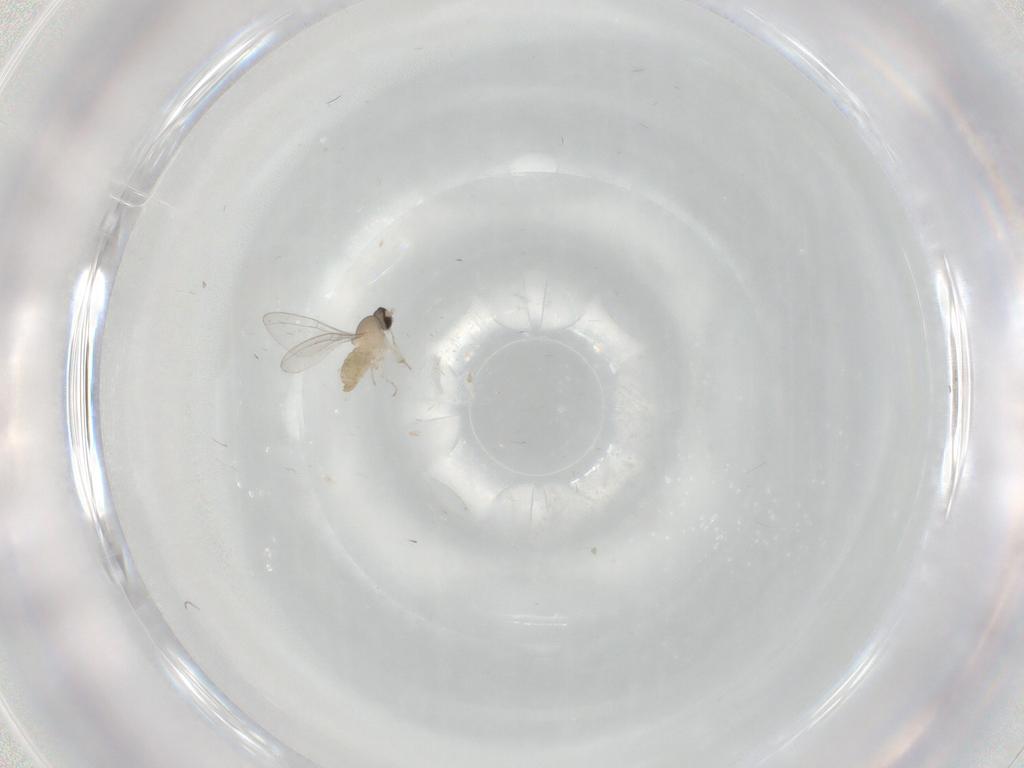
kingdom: Animalia
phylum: Arthropoda
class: Insecta
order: Diptera
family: Cecidomyiidae
